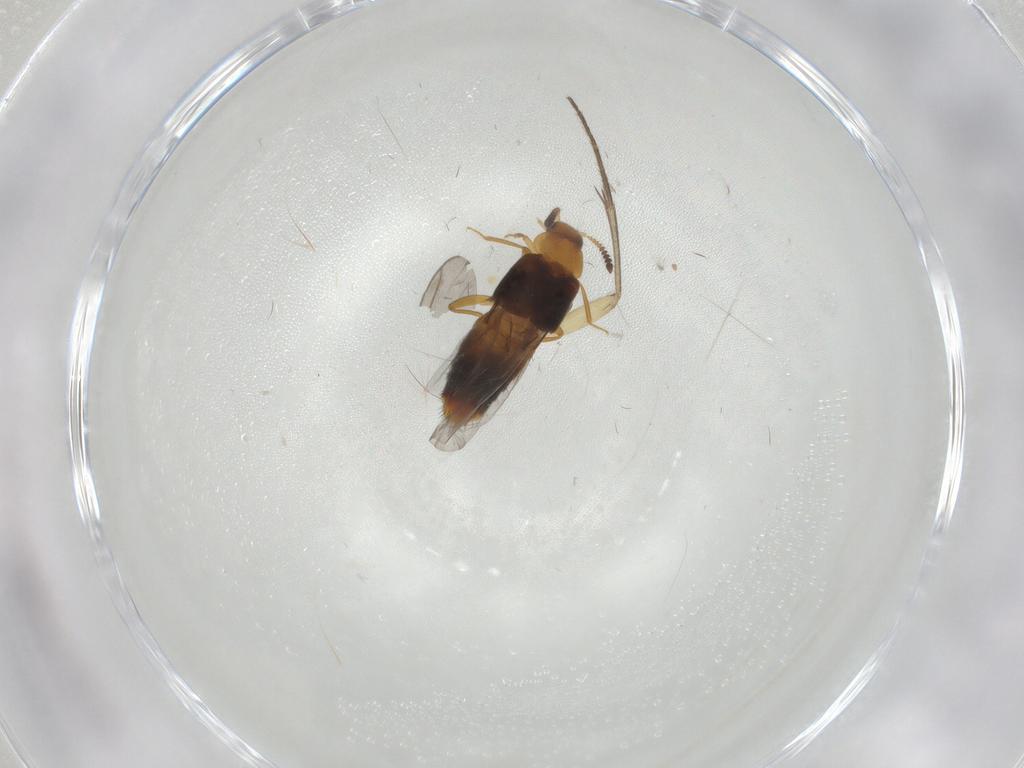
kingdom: Animalia
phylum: Arthropoda
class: Insecta
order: Coleoptera
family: Ptilodactylidae
